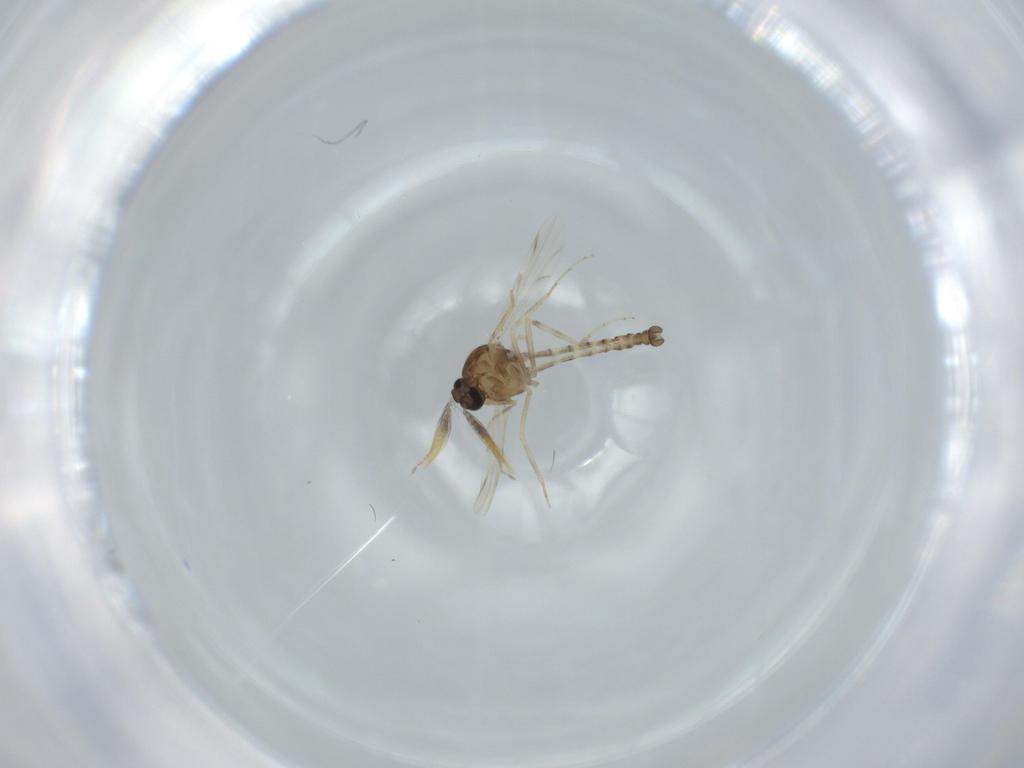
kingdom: Animalia
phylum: Arthropoda
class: Insecta
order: Diptera
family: Ceratopogonidae
